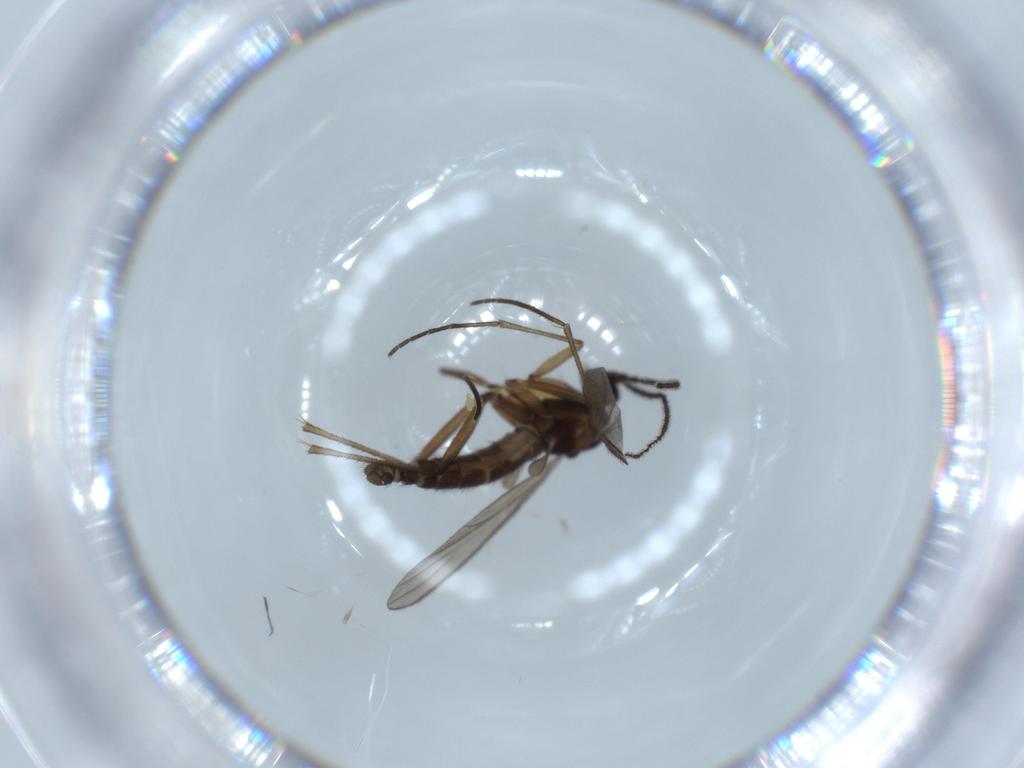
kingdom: Animalia
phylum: Arthropoda
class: Insecta
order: Diptera
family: Sciaridae
